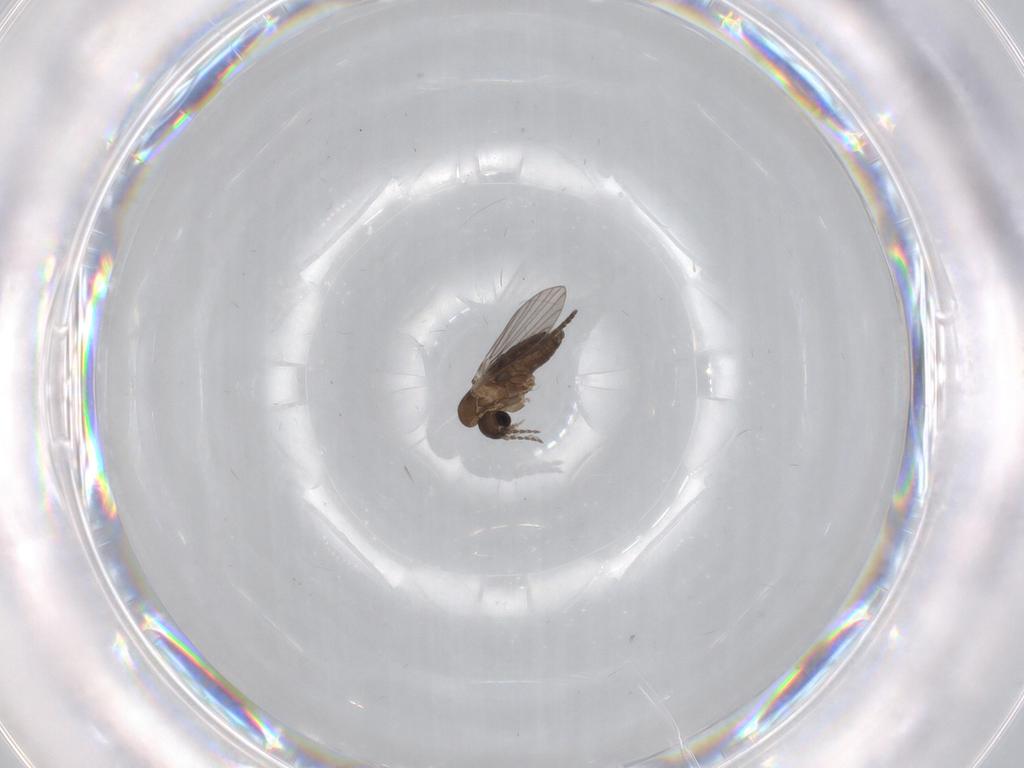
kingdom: Animalia
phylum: Arthropoda
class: Insecta
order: Diptera
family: Psychodidae
